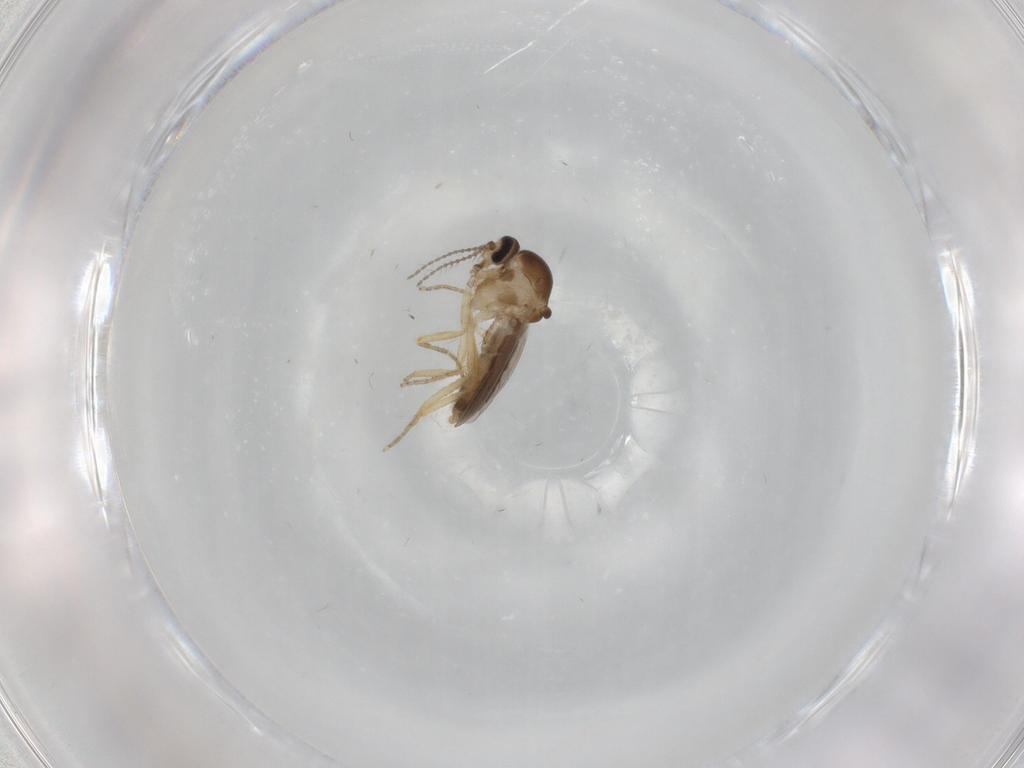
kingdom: Animalia
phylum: Arthropoda
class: Insecta
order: Diptera
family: Ceratopogonidae
